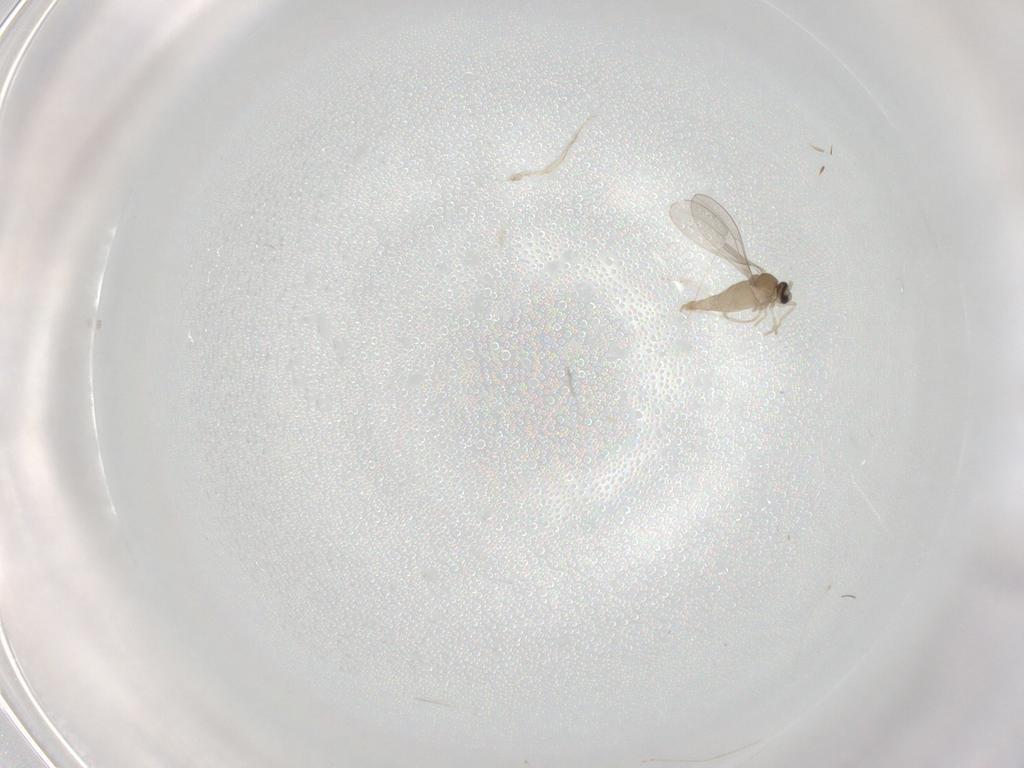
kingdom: Animalia
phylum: Arthropoda
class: Insecta
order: Diptera
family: Cecidomyiidae
